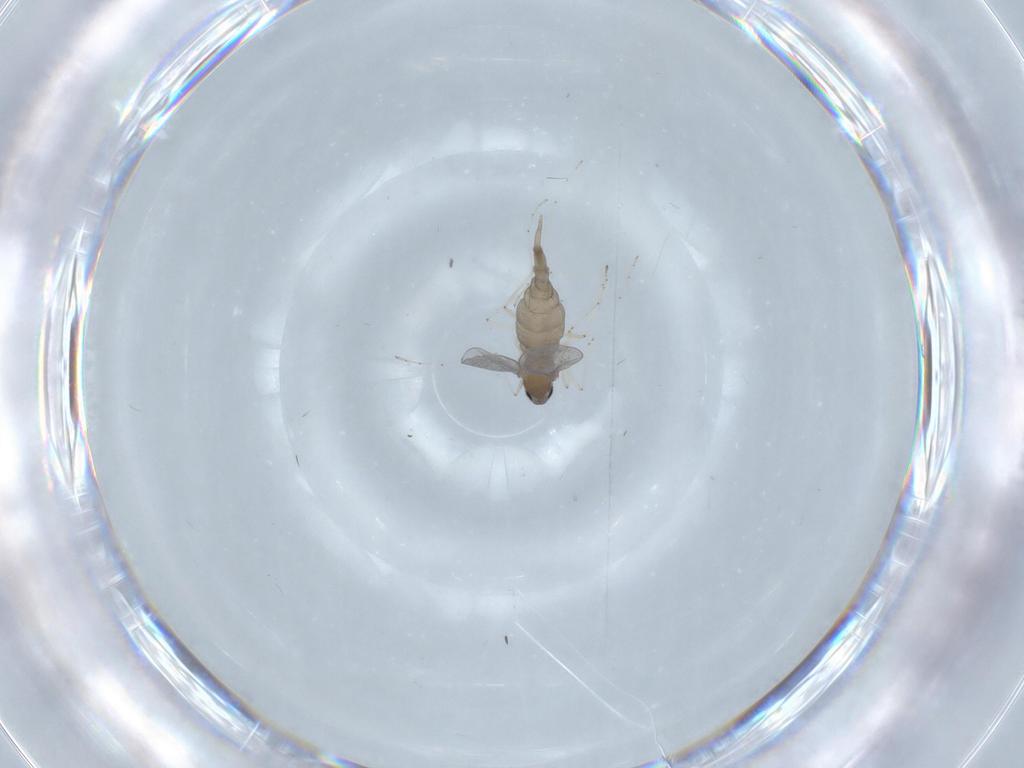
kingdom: Animalia
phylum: Arthropoda
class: Insecta
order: Diptera
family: Cecidomyiidae
